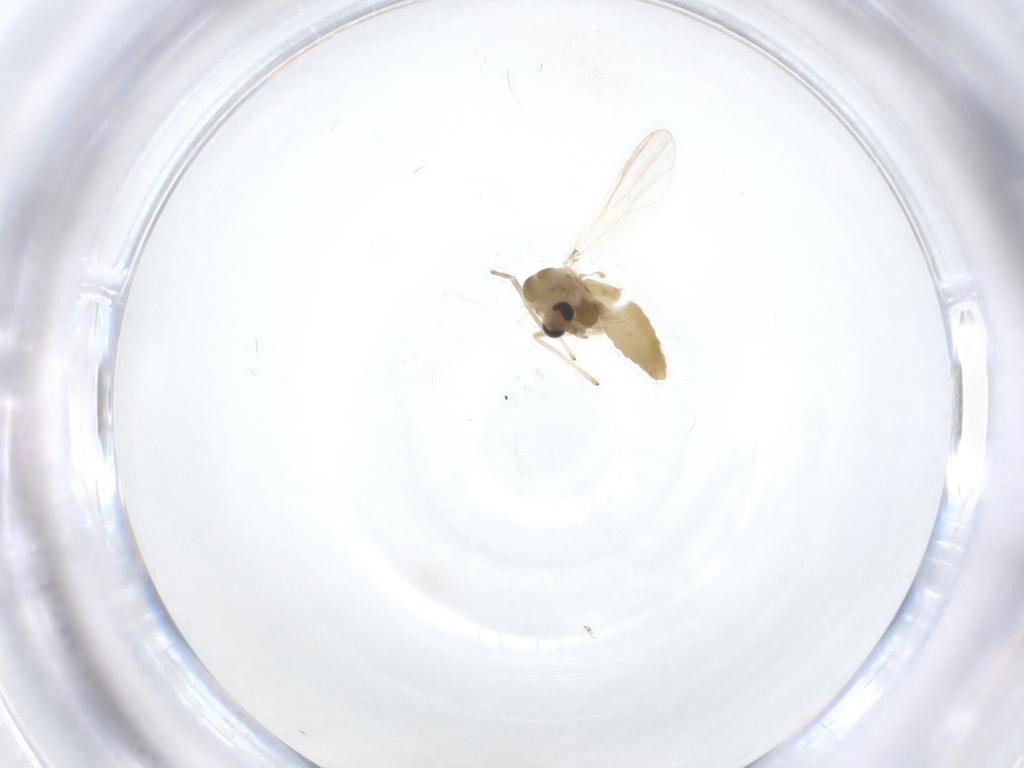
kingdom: Animalia
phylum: Arthropoda
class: Insecta
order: Diptera
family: Chironomidae
